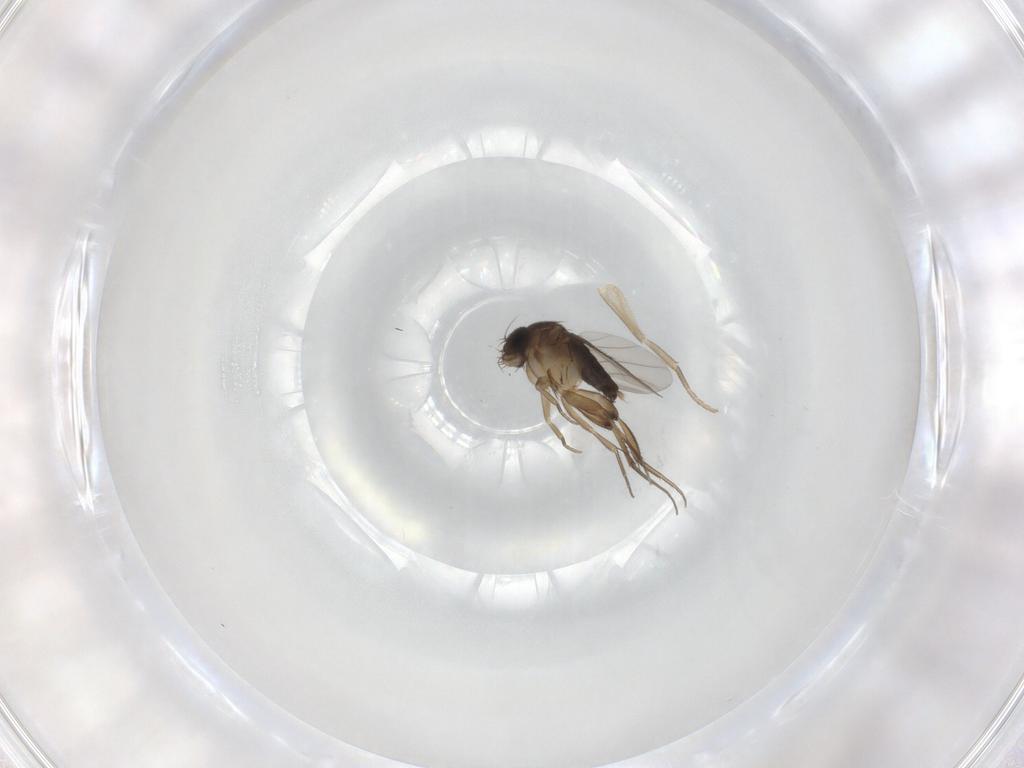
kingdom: Animalia
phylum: Arthropoda
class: Insecta
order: Diptera
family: Phoridae
